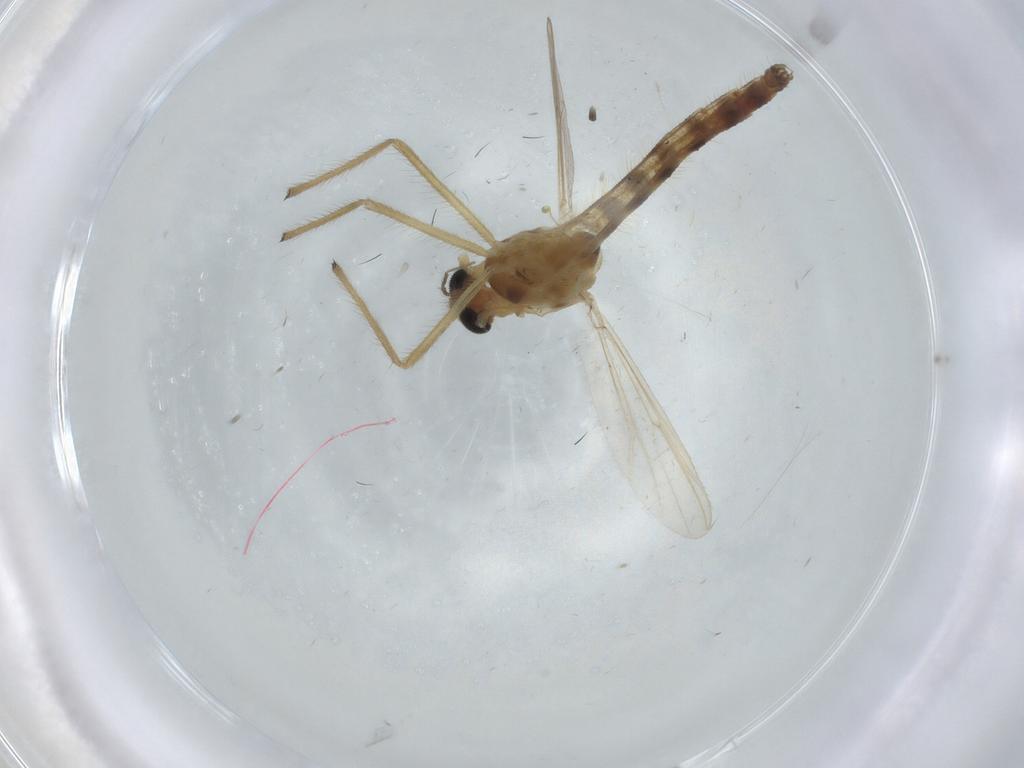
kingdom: Animalia
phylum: Arthropoda
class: Insecta
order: Diptera
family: Chironomidae
